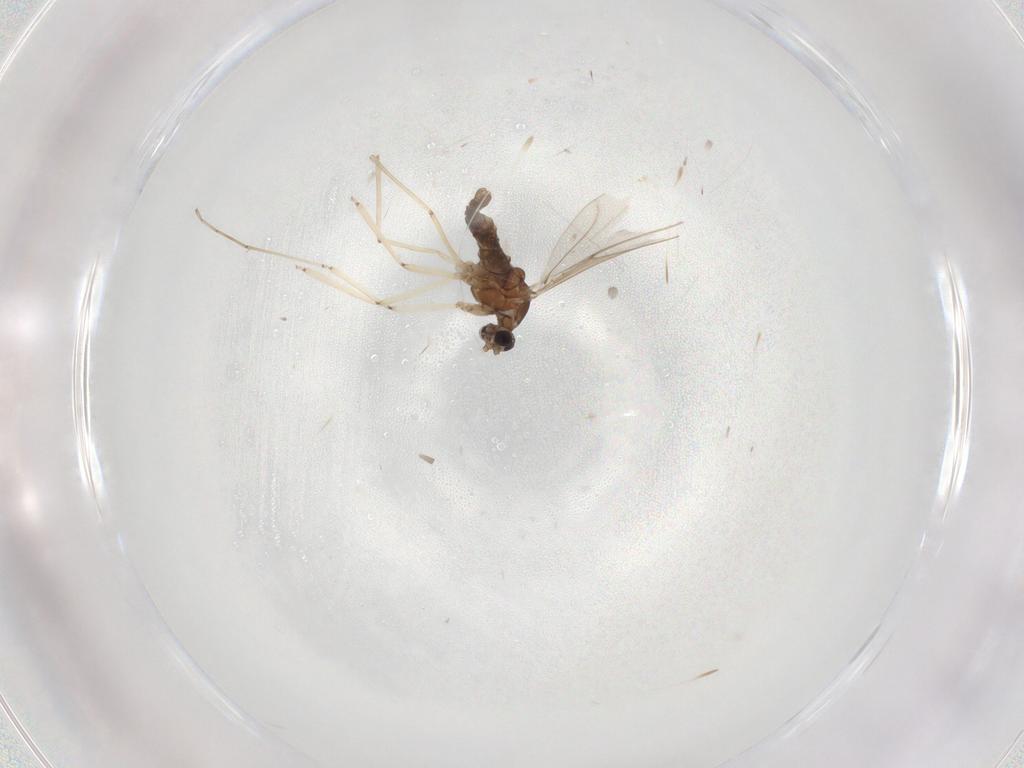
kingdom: Animalia
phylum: Arthropoda
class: Insecta
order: Diptera
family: Cecidomyiidae
